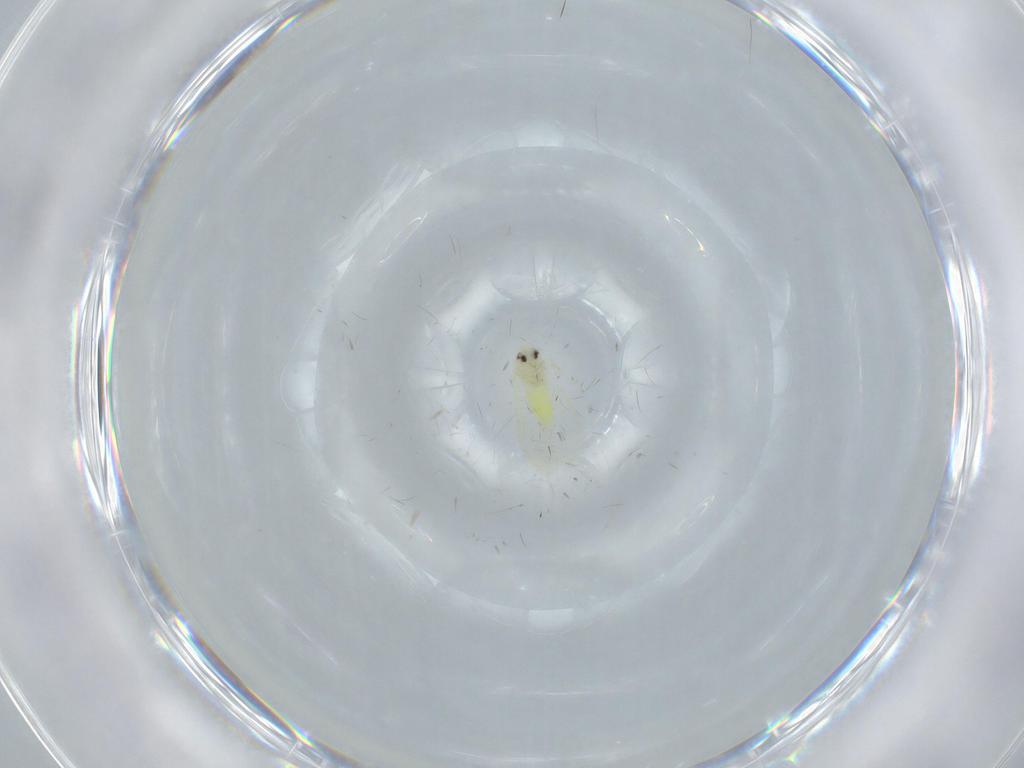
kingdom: Animalia
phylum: Arthropoda
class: Insecta
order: Hemiptera
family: Aleyrodidae
